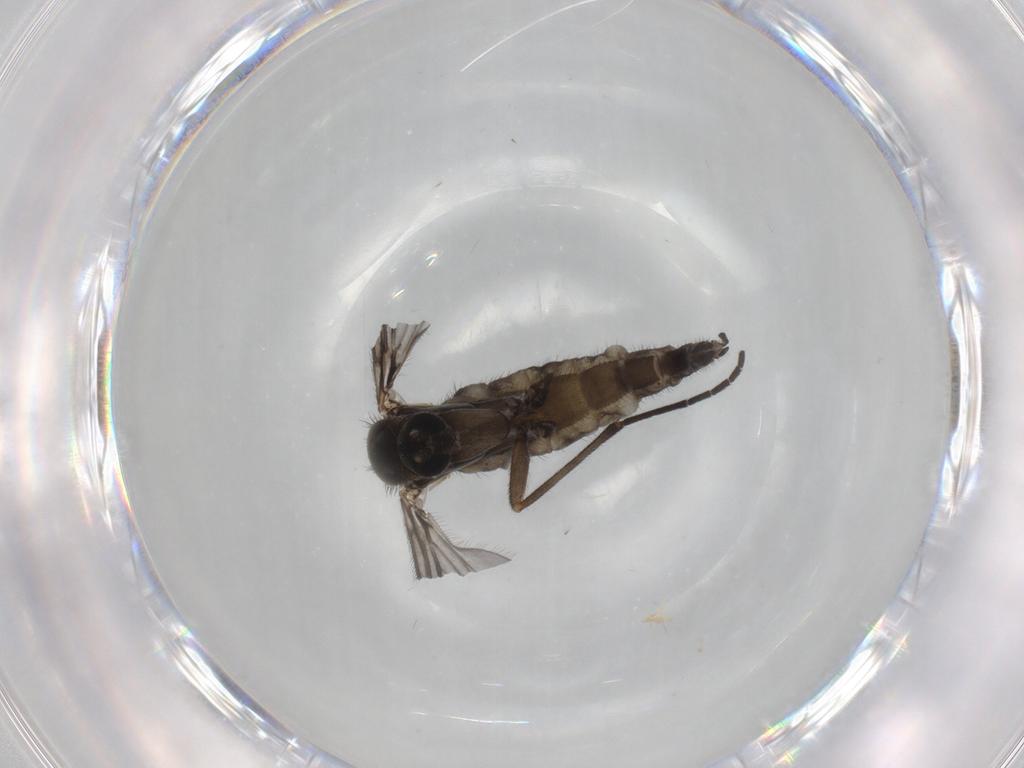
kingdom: Animalia
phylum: Arthropoda
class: Insecta
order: Diptera
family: Sciaridae
